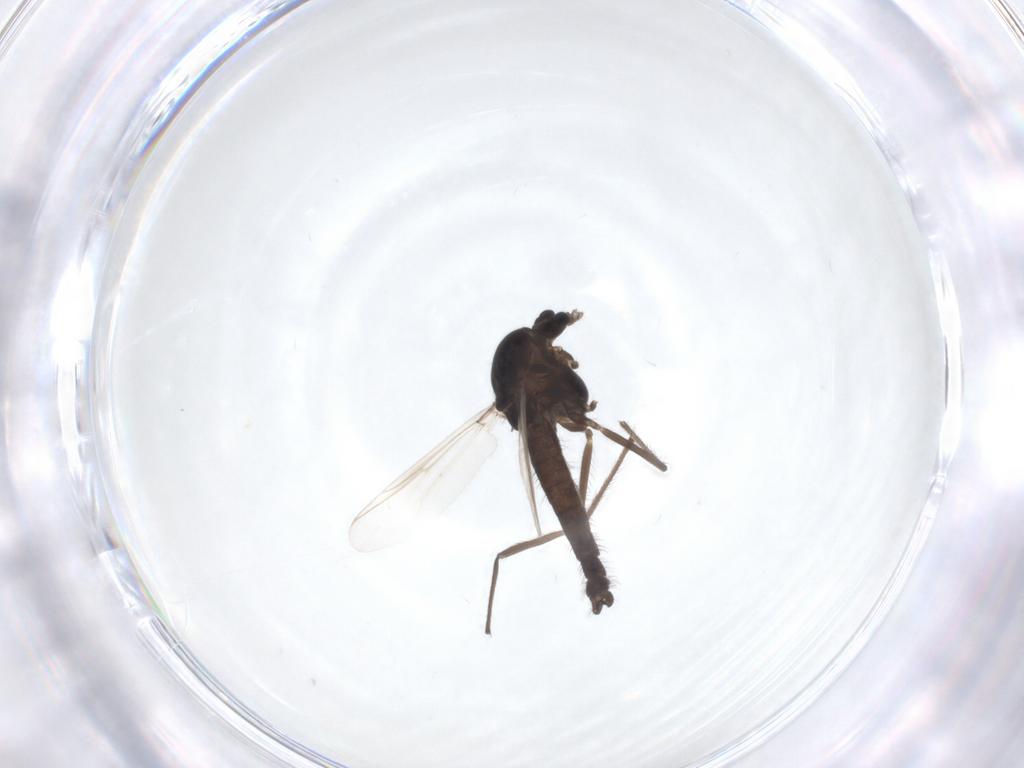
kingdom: Animalia
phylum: Arthropoda
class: Insecta
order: Diptera
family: Chironomidae
